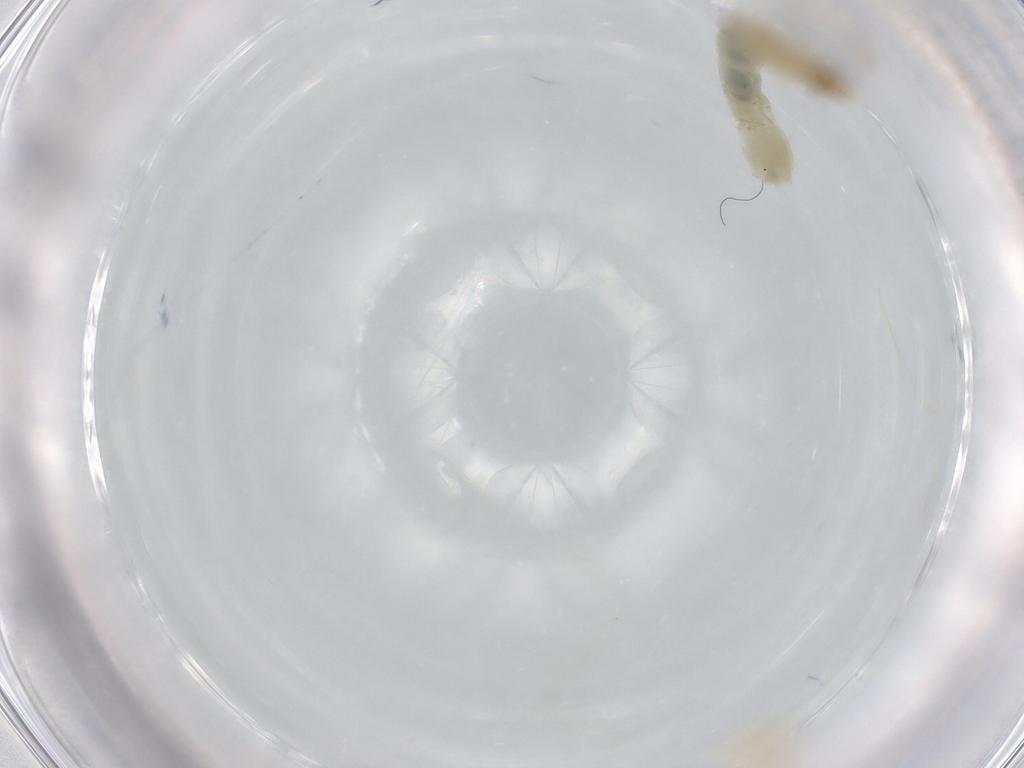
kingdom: Animalia
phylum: Arthropoda
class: Insecta
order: Diptera
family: Chironomidae
